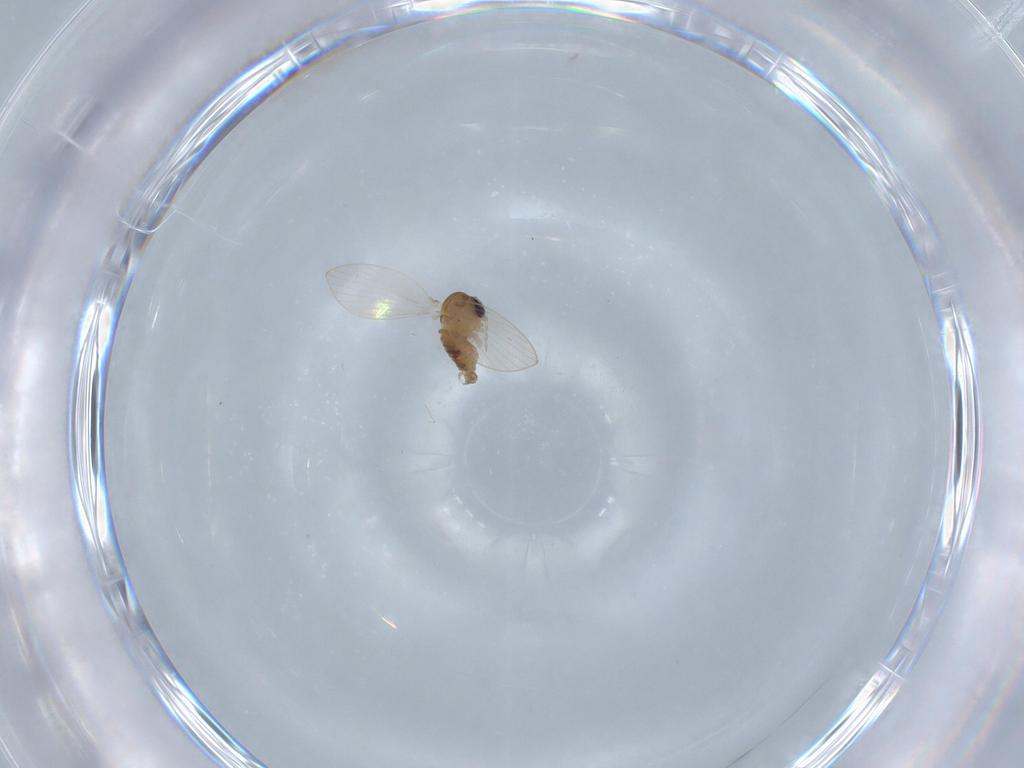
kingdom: Animalia
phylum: Arthropoda
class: Insecta
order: Diptera
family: Psychodidae
